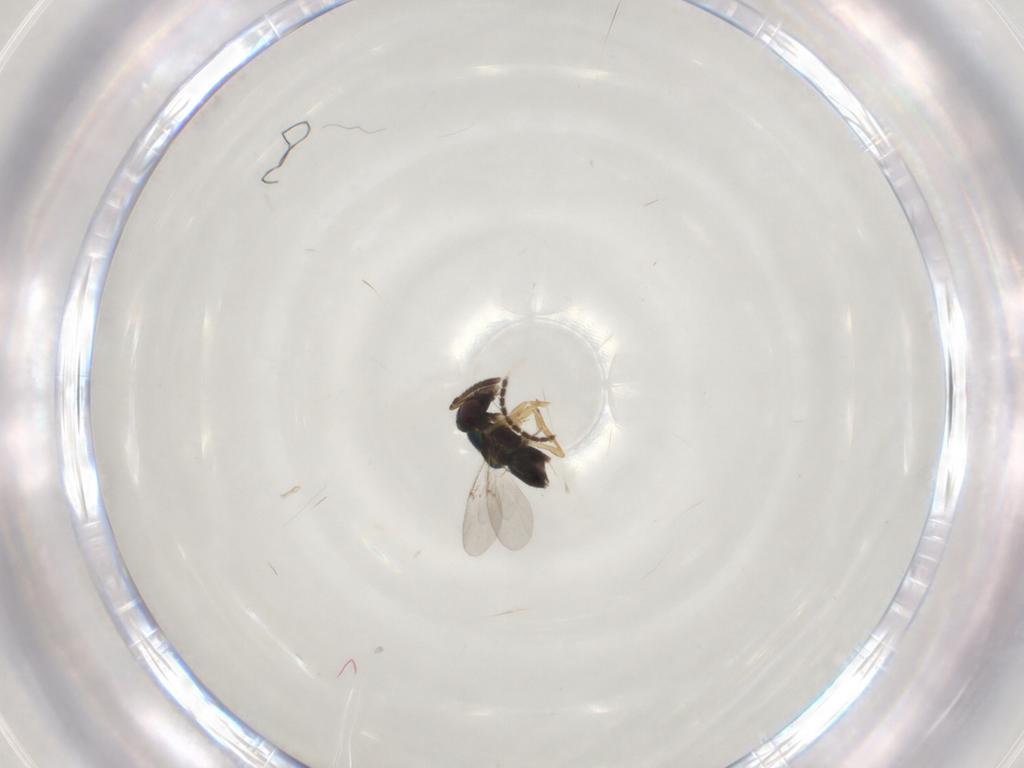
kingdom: Animalia
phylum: Arthropoda
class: Insecta
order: Hymenoptera
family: Encyrtidae
